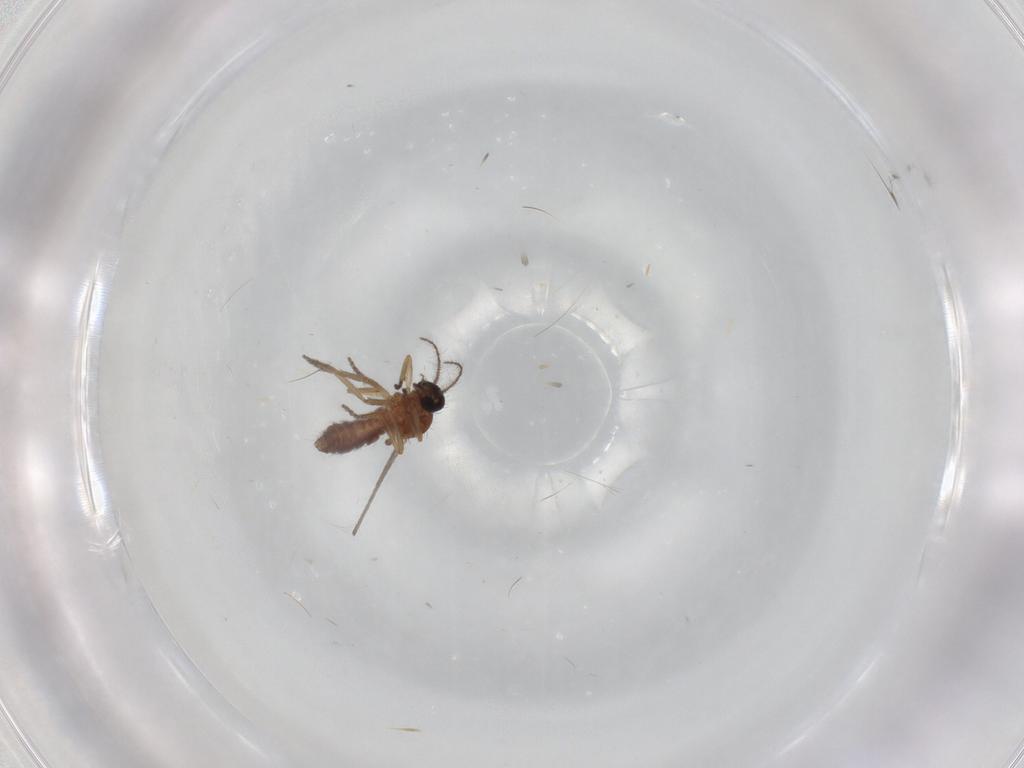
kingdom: Animalia
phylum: Arthropoda
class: Insecta
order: Diptera
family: Ceratopogonidae
